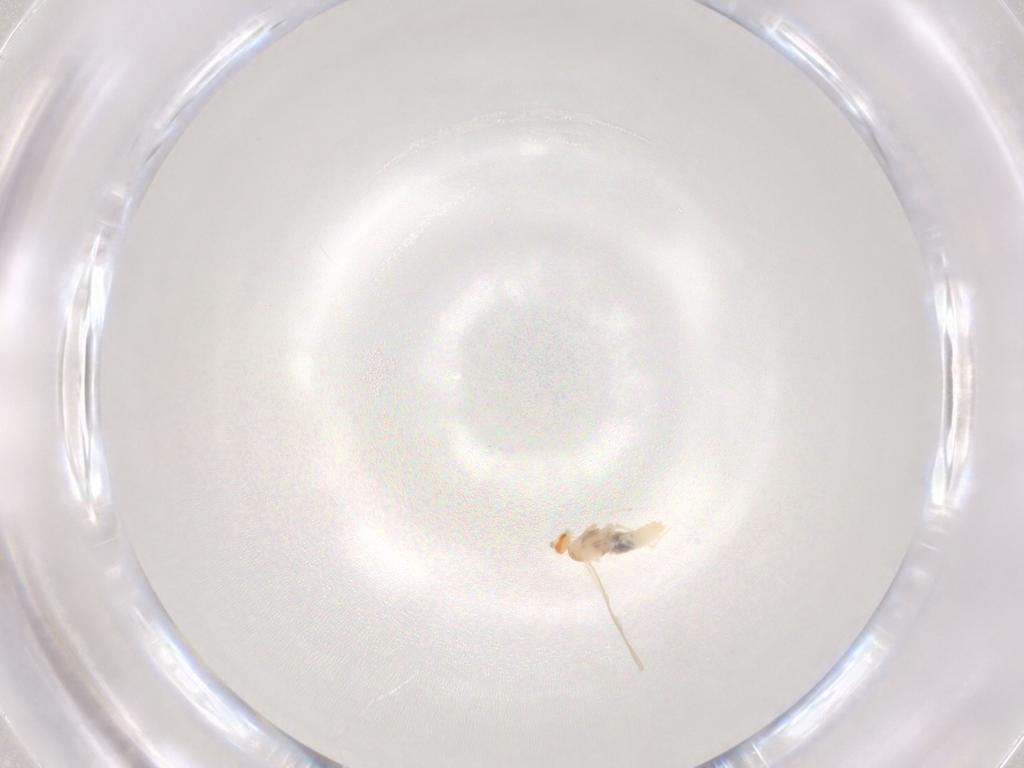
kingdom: Animalia
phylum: Arthropoda
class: Insecta
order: Diptera
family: Cecidomyiidae
